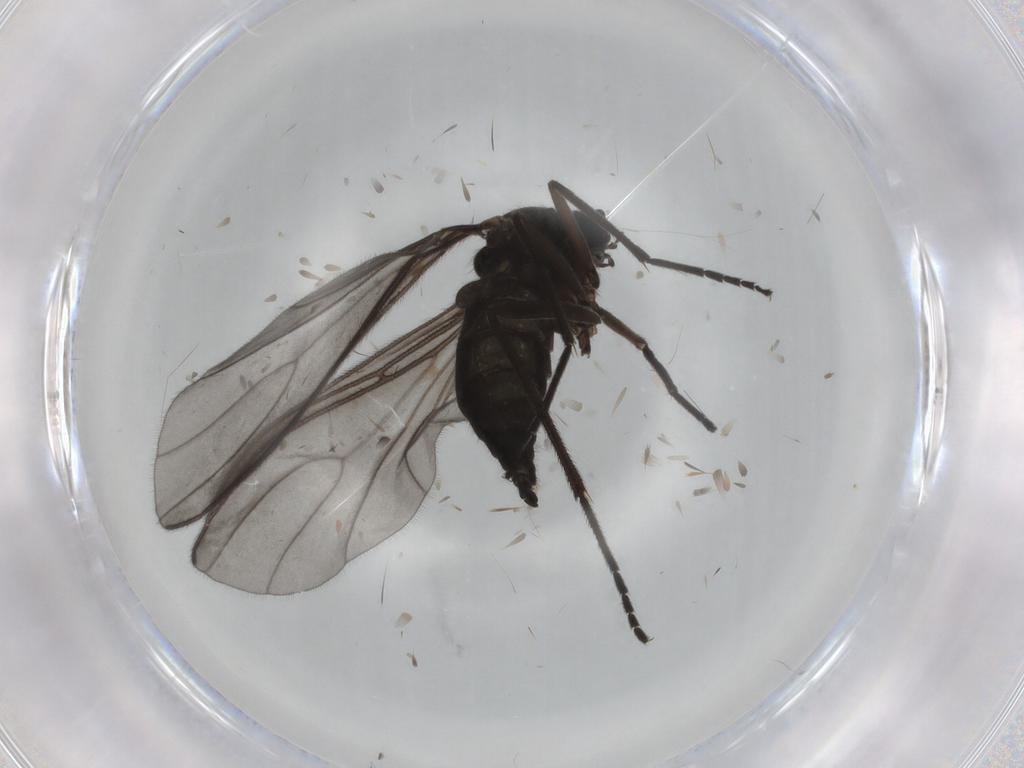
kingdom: Animalia
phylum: Arthropoda
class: Insecta
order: Diptera
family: Sciaridae
